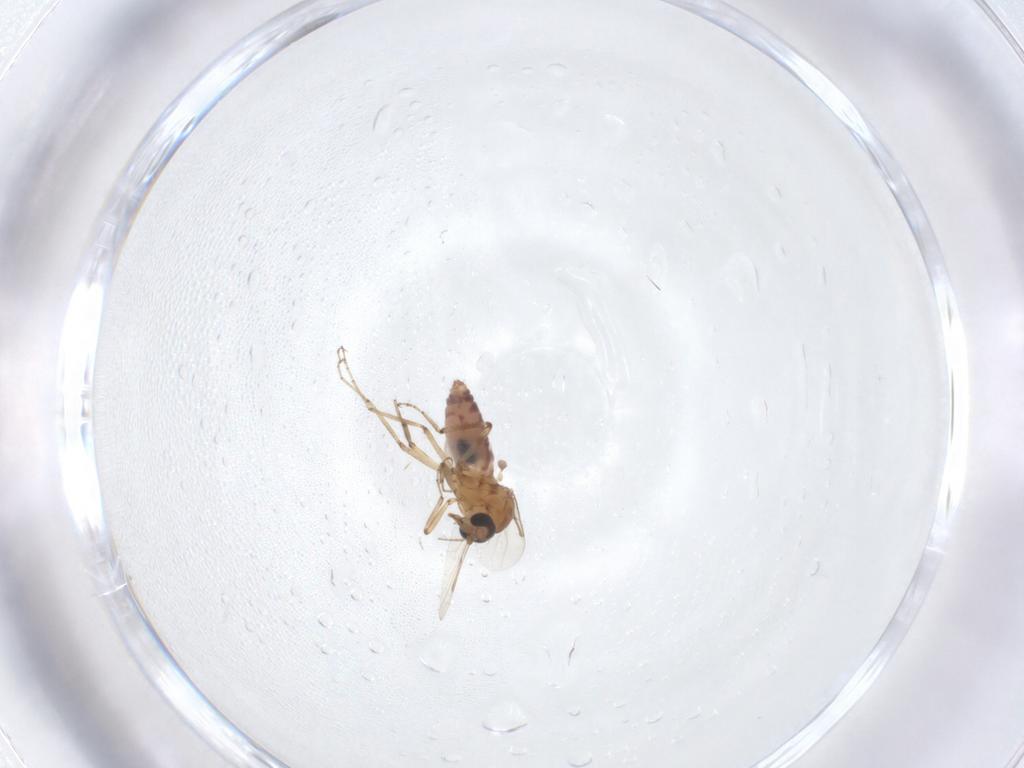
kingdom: Animalia
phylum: Arthropoda
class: Insecta
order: Diptera
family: Ceratopogonidae
